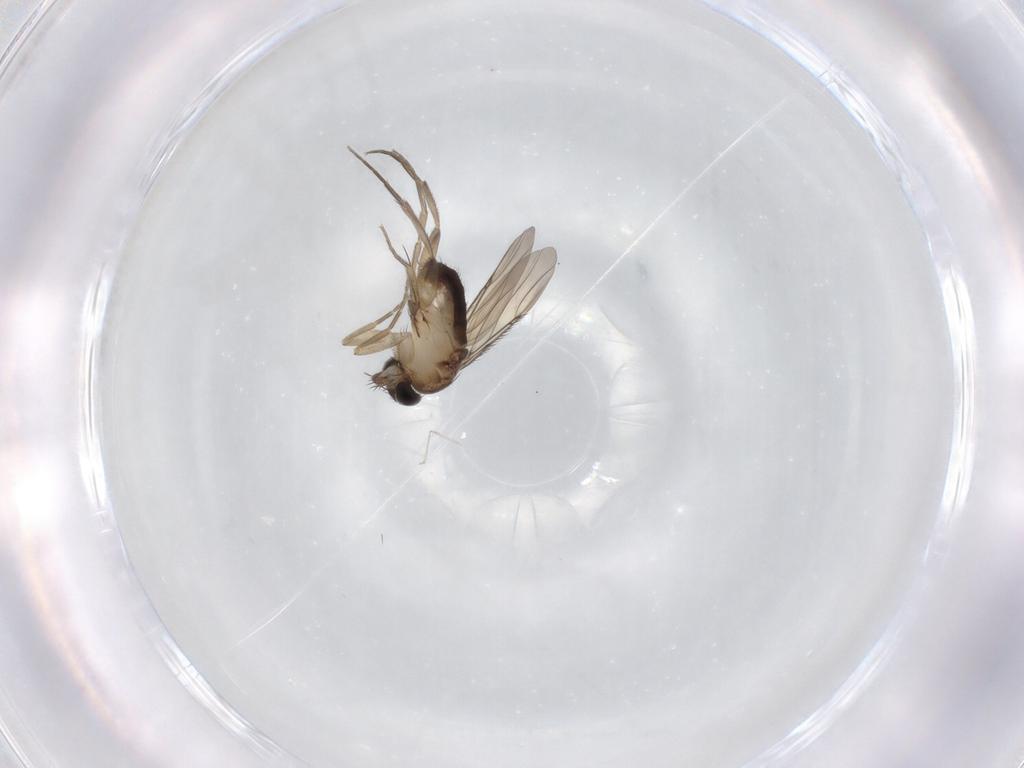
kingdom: Animalia
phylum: Arthropoda
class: Insecta
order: Diptera
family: Phoridae
